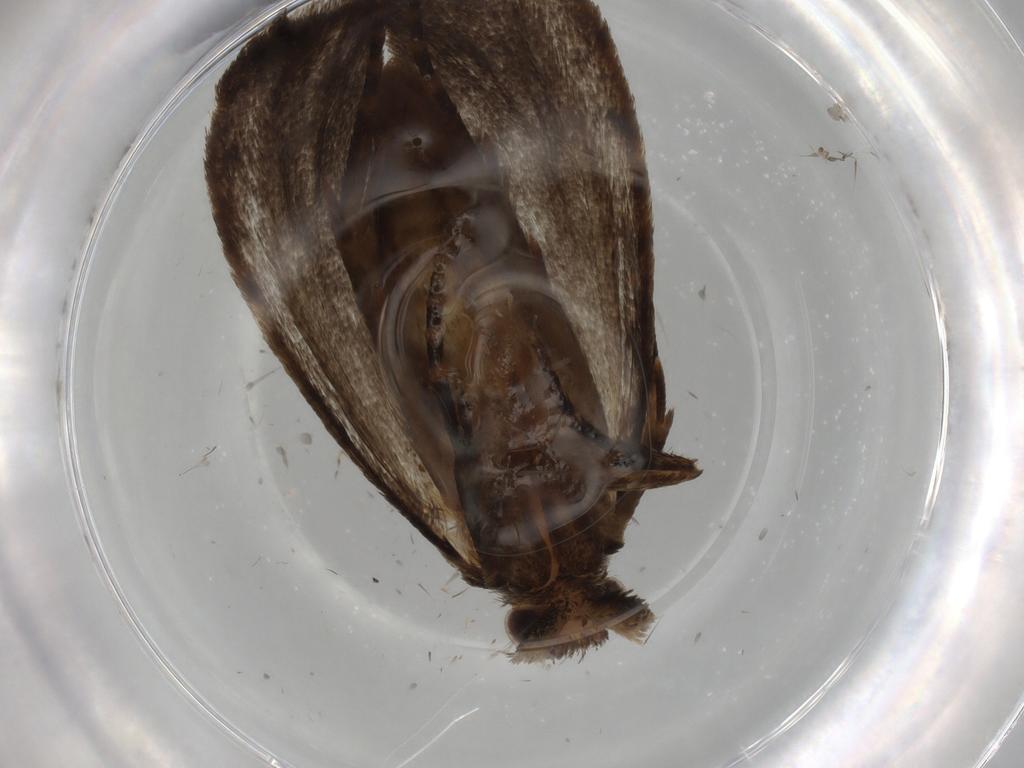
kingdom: Animalia
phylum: Arthropoda
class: Insecta
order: Lepidoptera
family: Tineidae
